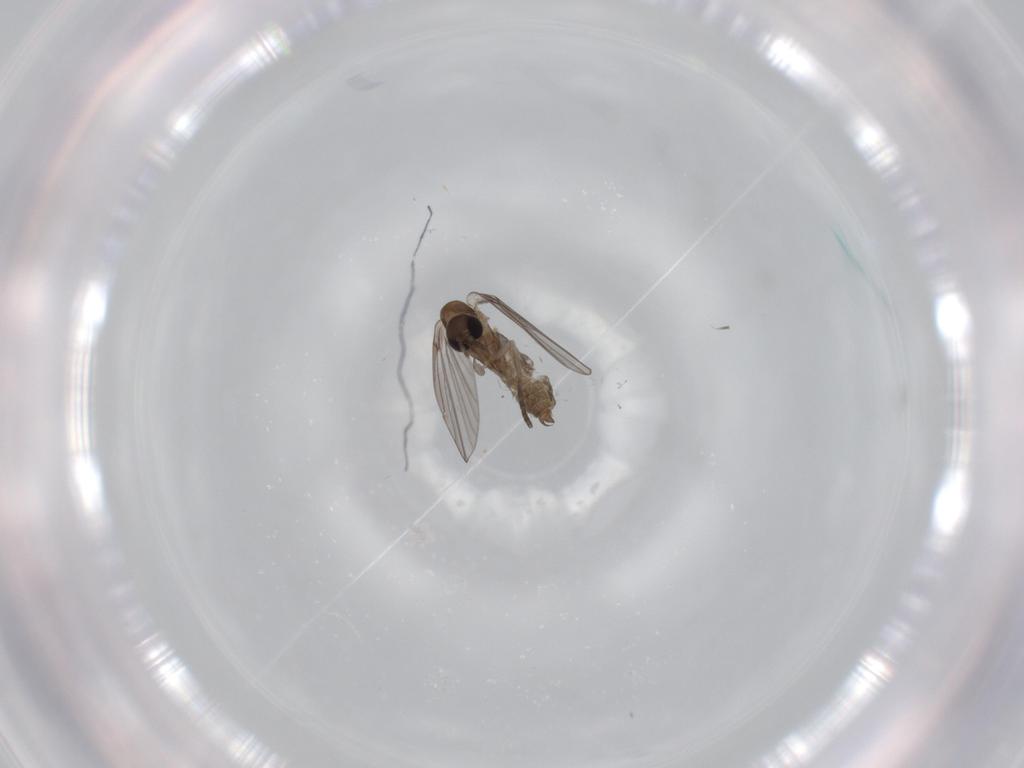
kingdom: Animalia
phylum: Arthropoda
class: Insecta
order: Diptera
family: Psychodidae
